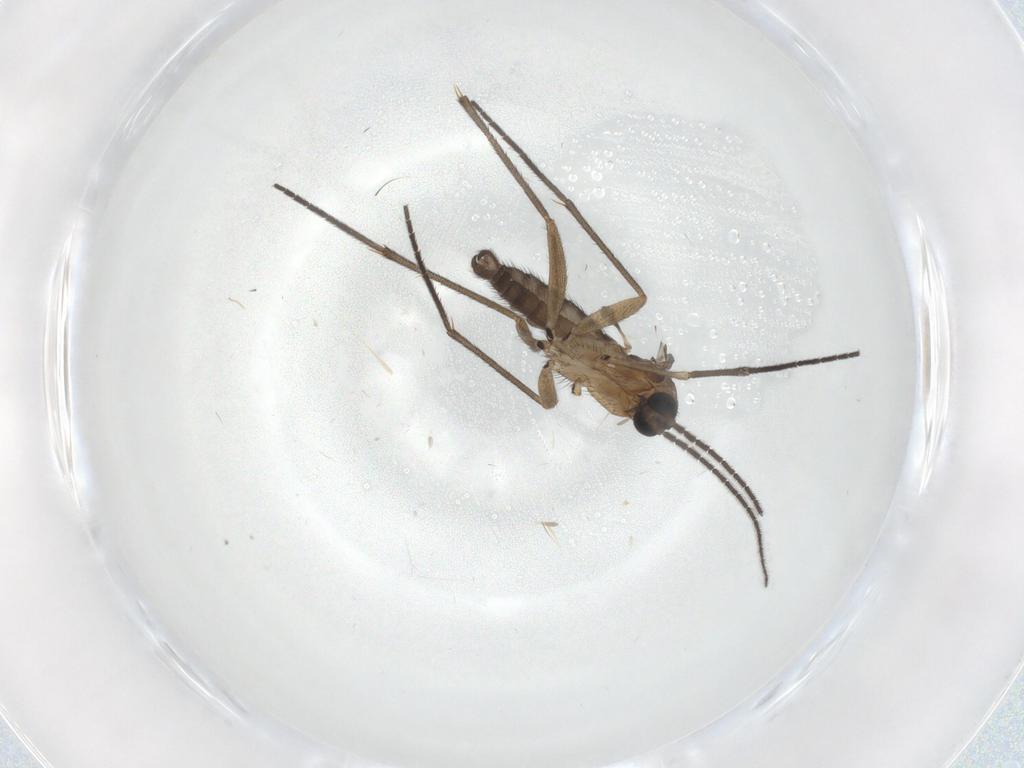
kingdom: Animalia
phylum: Arthropoda
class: Insecta
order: Diptera
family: Sciaridae
